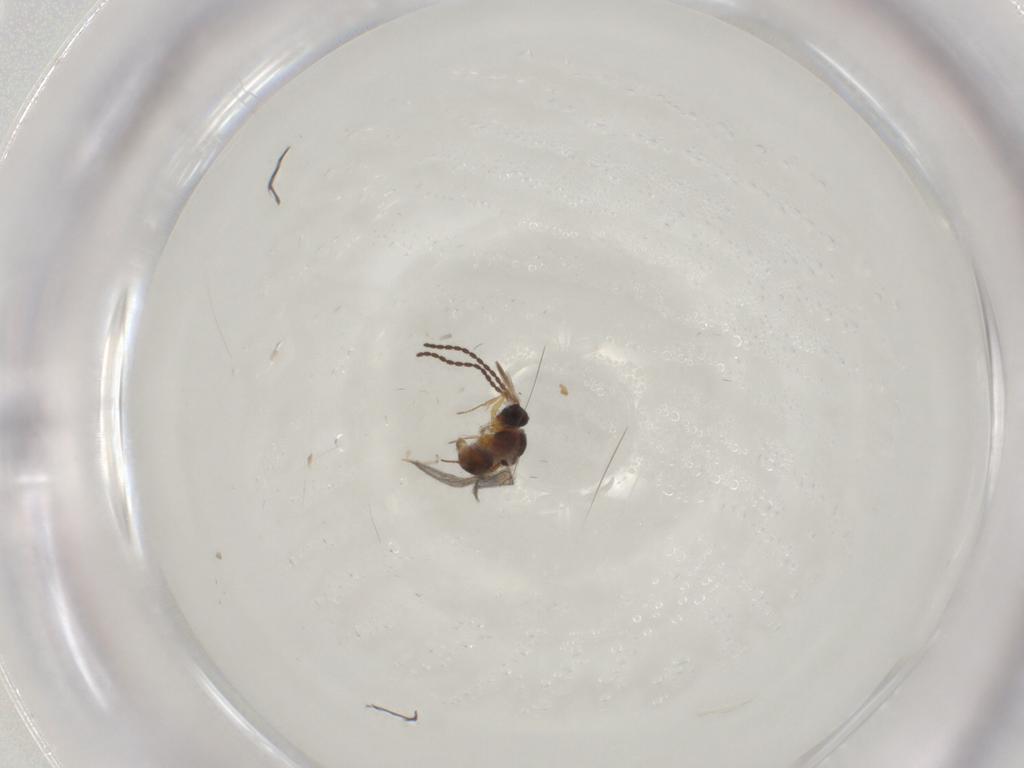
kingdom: Animalia
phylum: Arthropoda
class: Insecta
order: Hymenoptera
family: Figitidae
